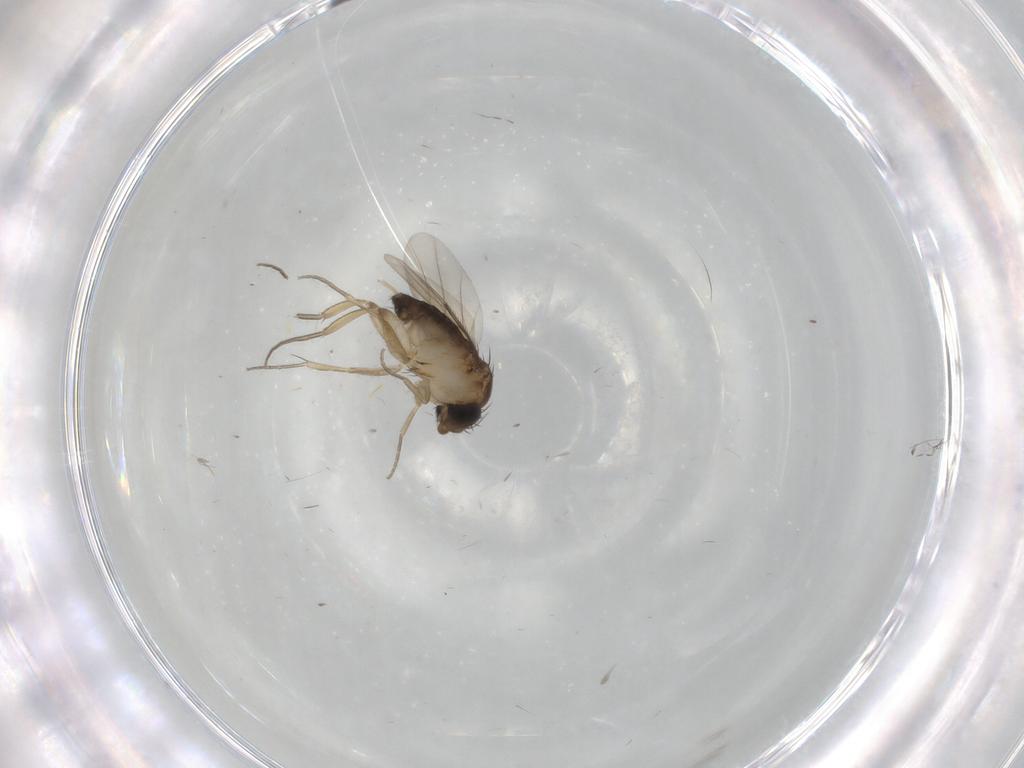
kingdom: Animalia
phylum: Arthropoda
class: Insecta
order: Diptera
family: Phoridae
